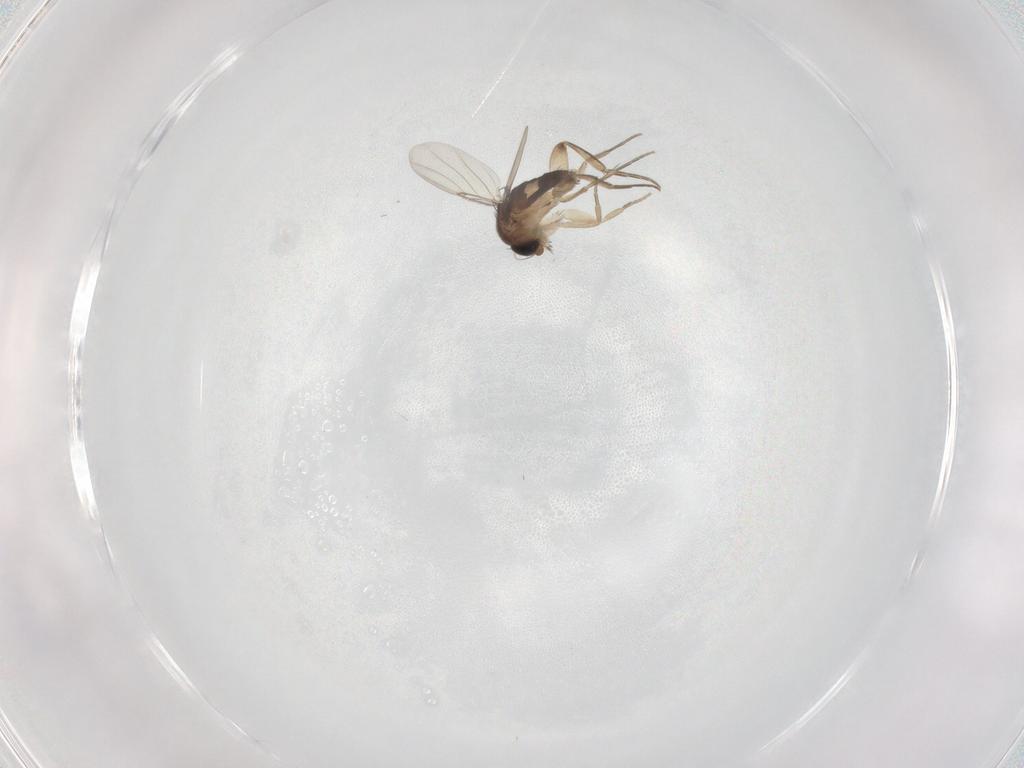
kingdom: Animalia
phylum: Arthropoda
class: Insecta
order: Diptera
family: Phoridae
